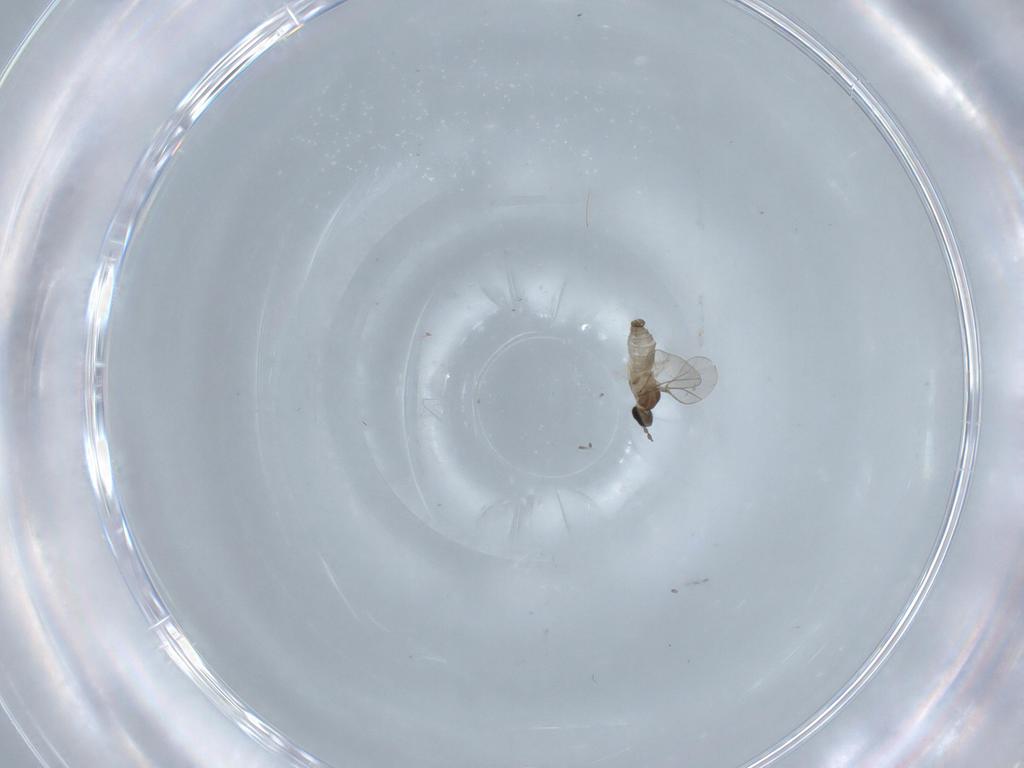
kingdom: Animalia
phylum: Arthropoda
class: Insecta
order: Diptera
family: Cecidomyiidae
